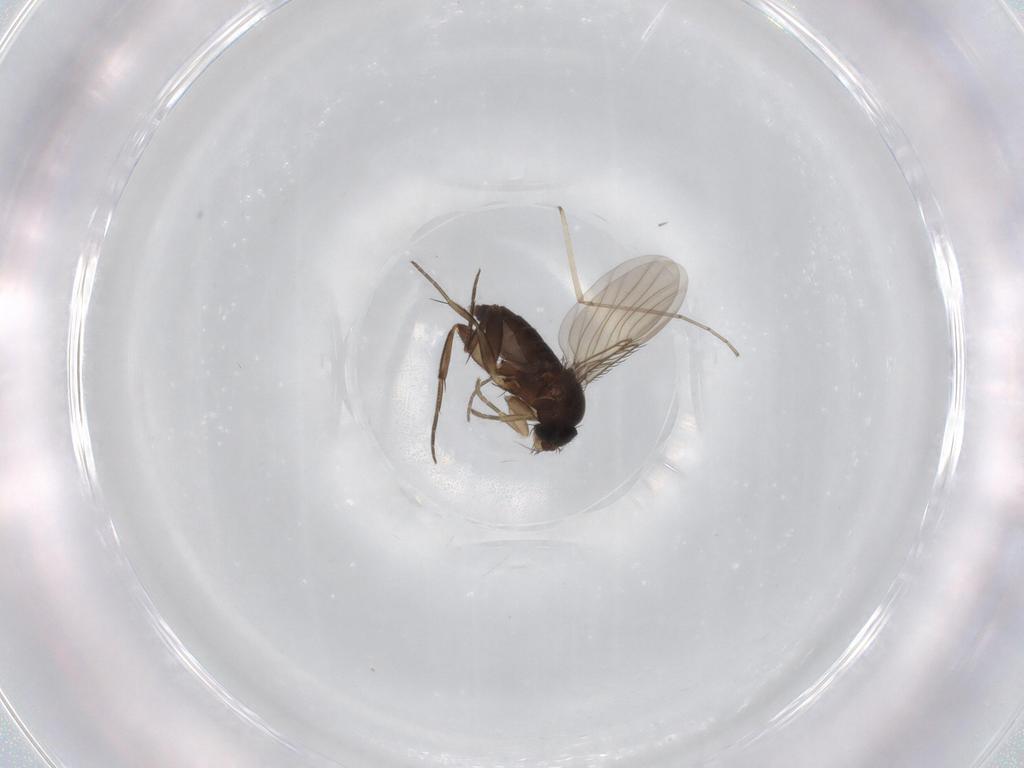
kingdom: Animalia
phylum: Arthropoda
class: Insecta
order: Diptera
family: Phoridae
